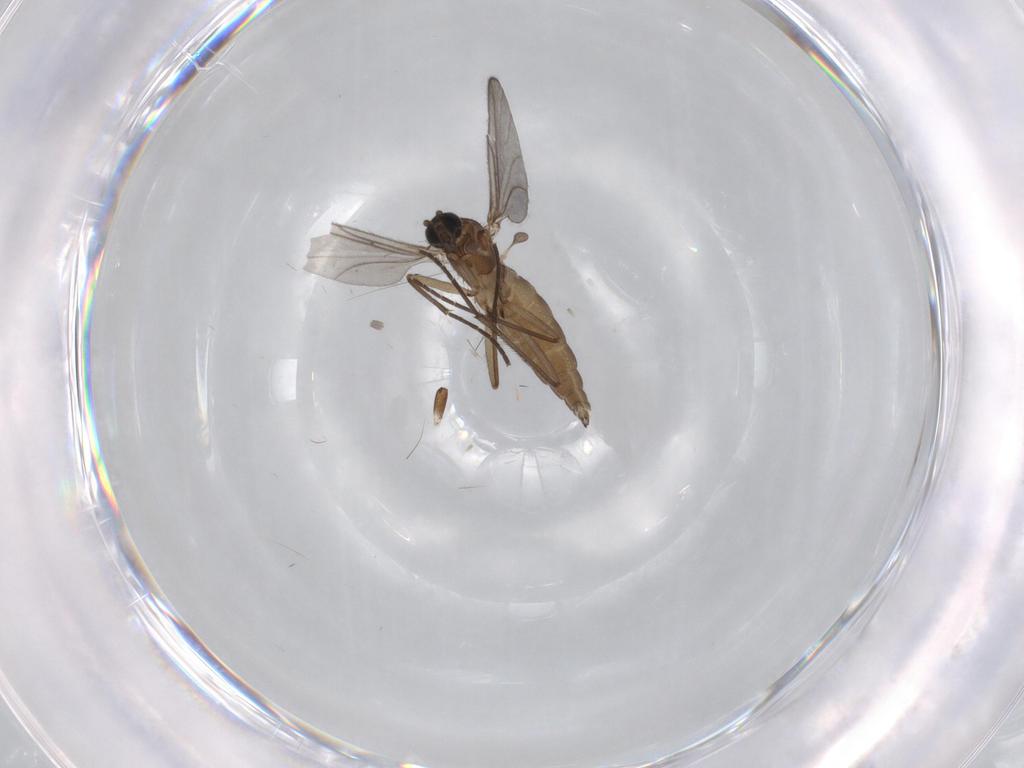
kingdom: Animalia
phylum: Arthropoda
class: Insecta
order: Diptera
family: Sciaridae
